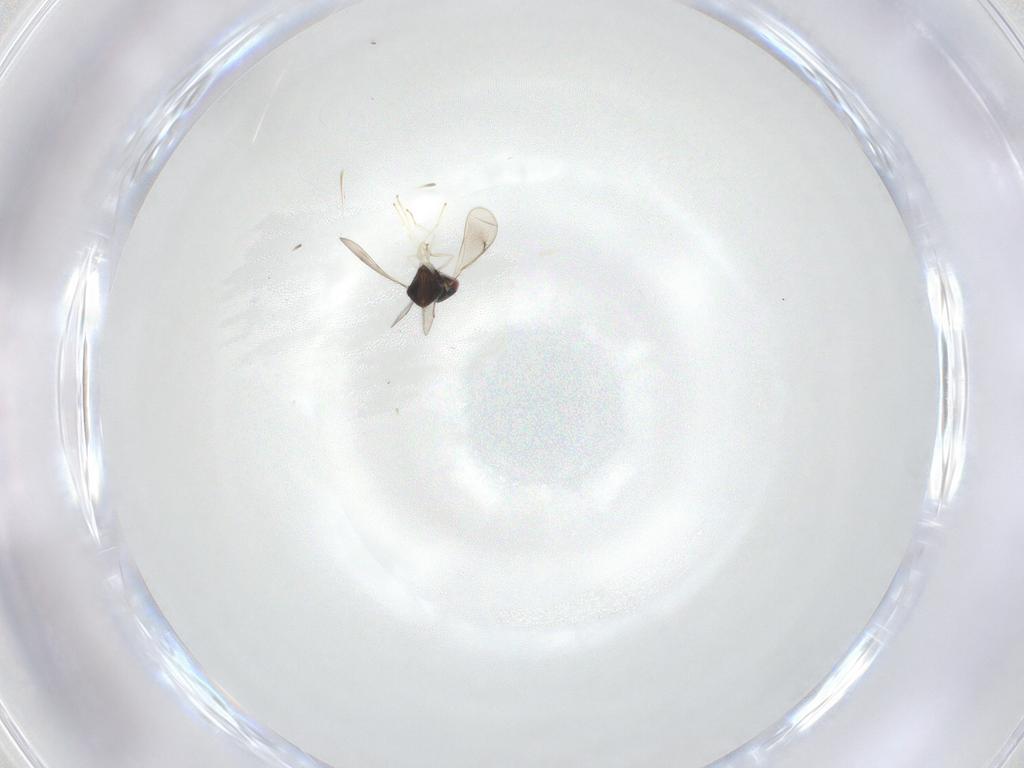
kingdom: Animalia
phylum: Arthropoda
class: Insecta
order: Hymenoptera
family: Eulophidae
